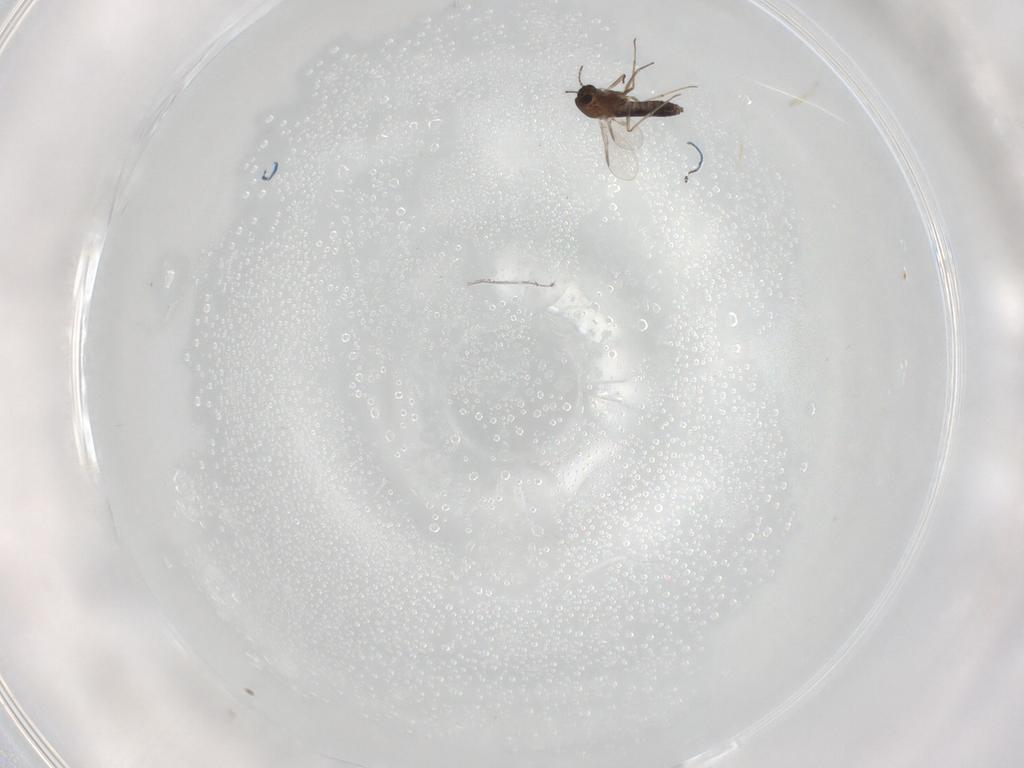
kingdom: Animalia
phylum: Arthropoda
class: Insecta
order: Diptera
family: Chironomidae
